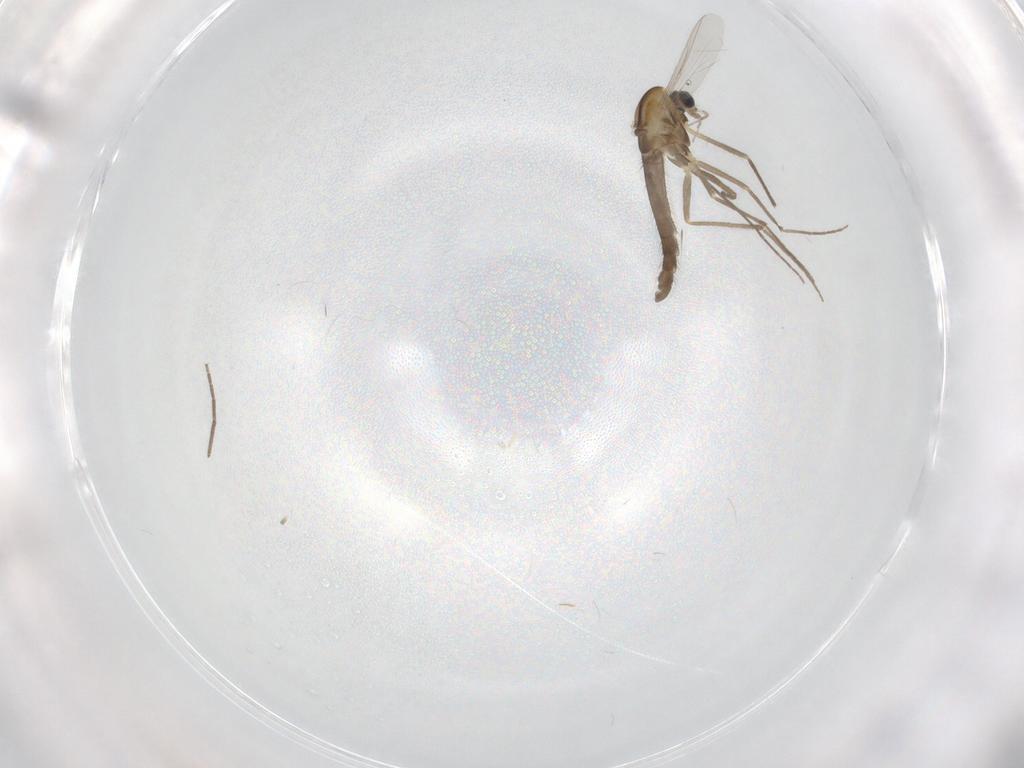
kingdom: Animalia
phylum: Arthropoda
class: Insecta
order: Diptera
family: Chironomidae
